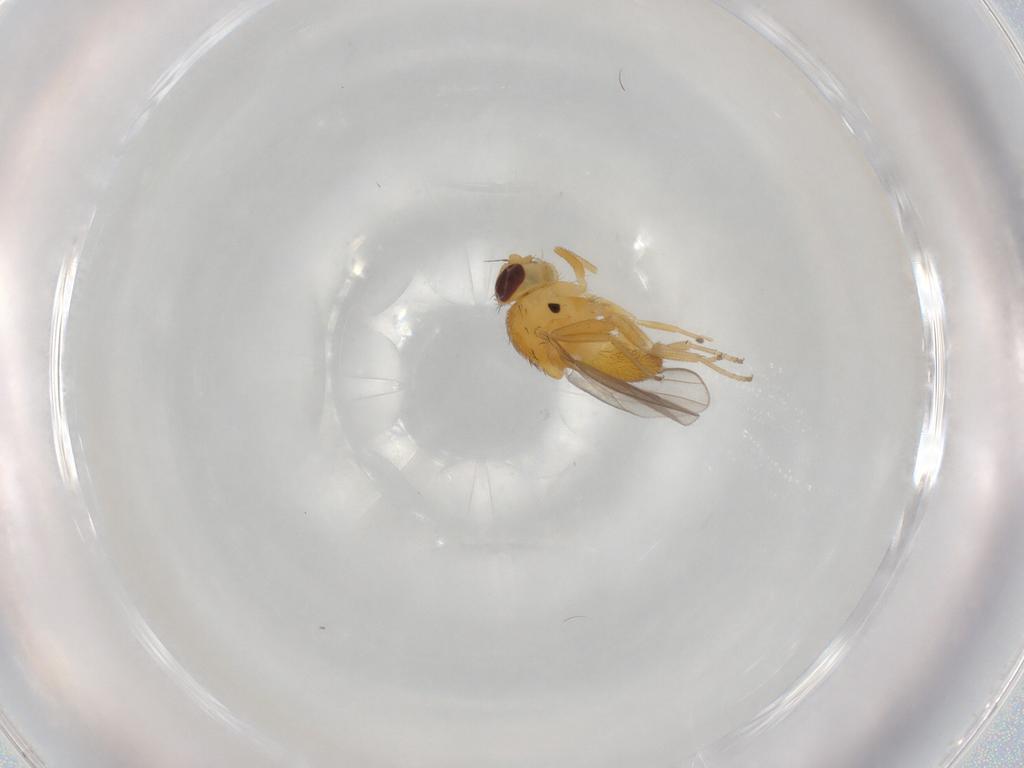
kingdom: Animalia
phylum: Arthropoda
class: Insecta
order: Diptera
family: Chloropidae
